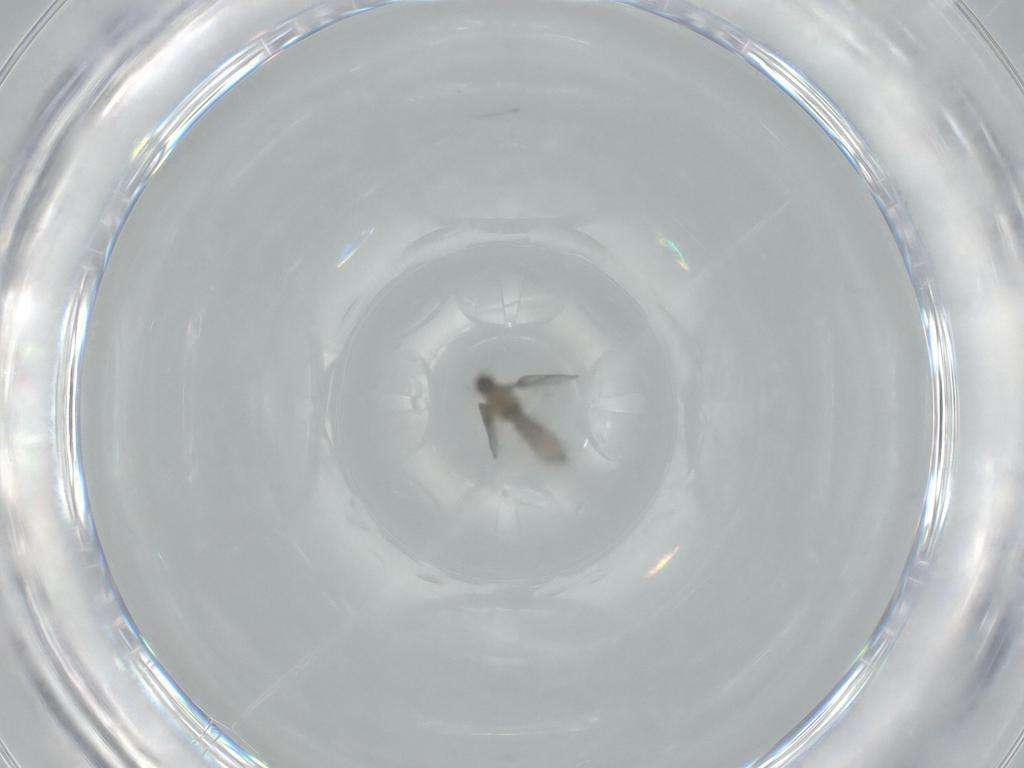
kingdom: Animalia
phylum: Arthropoda
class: Insecta
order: Diptera
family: Cecidomyiidae
